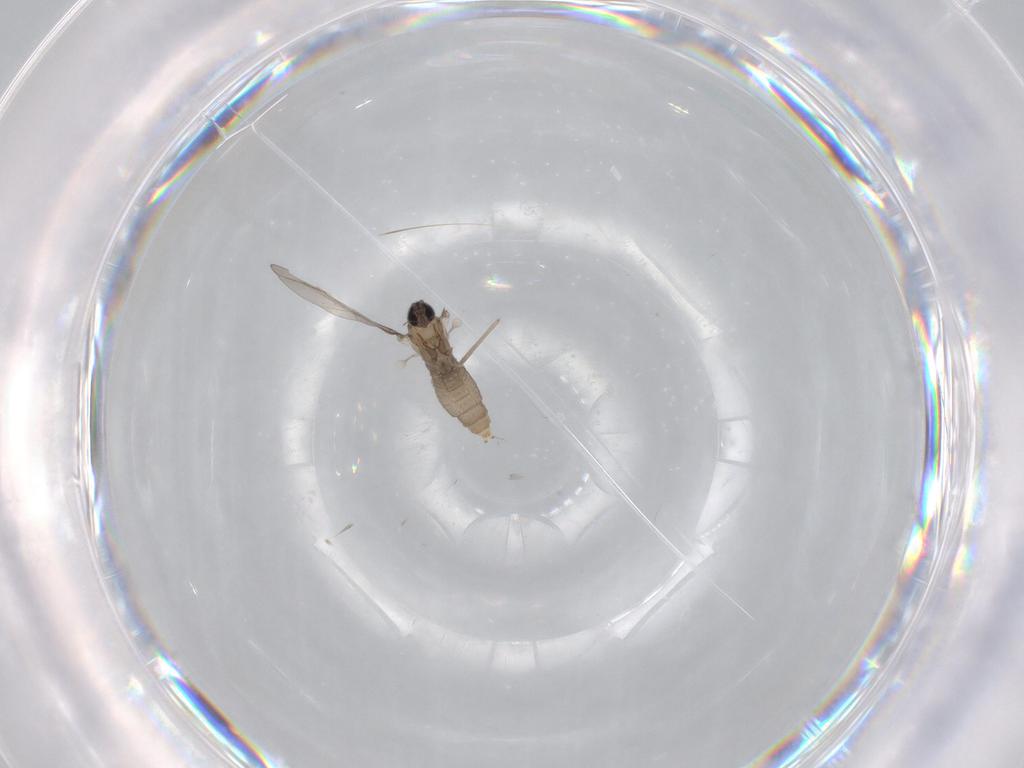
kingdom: Animalia
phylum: Arthropoda
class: Insecta
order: Diptera
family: Cecidomyiidae
